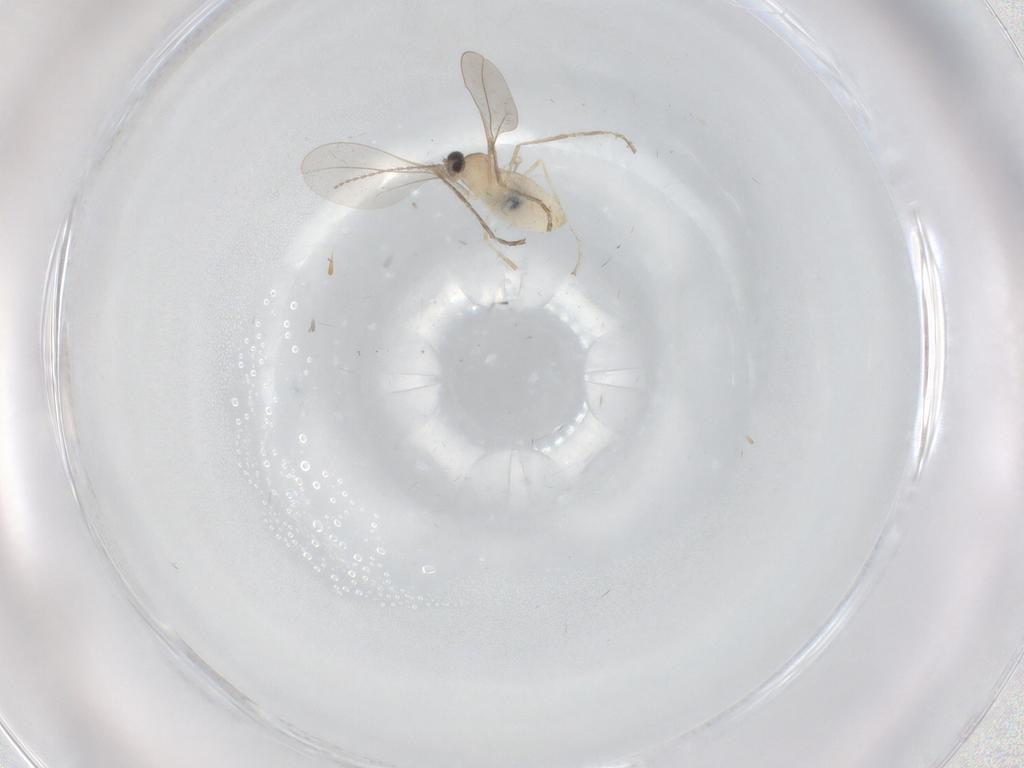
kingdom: Animalia
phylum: Arthropoda
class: Insecta
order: Diptera
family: Cecidomyiidae
